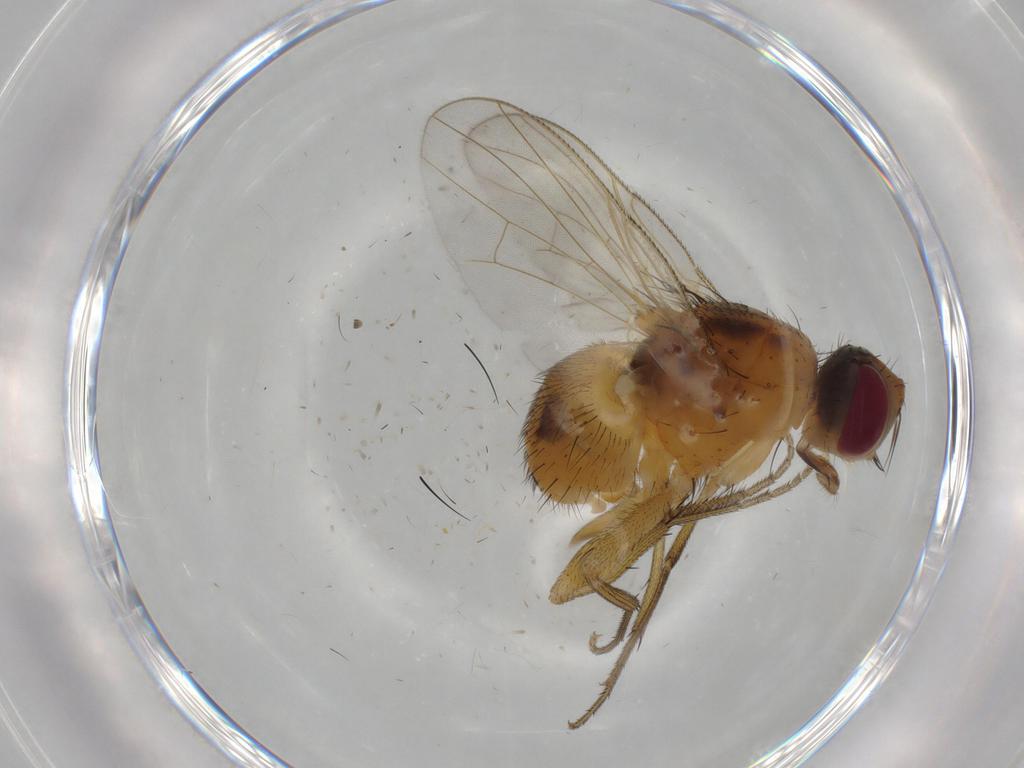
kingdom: Animalia
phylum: Arthropoda
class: Insecta
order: Diptera
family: Muscidae
